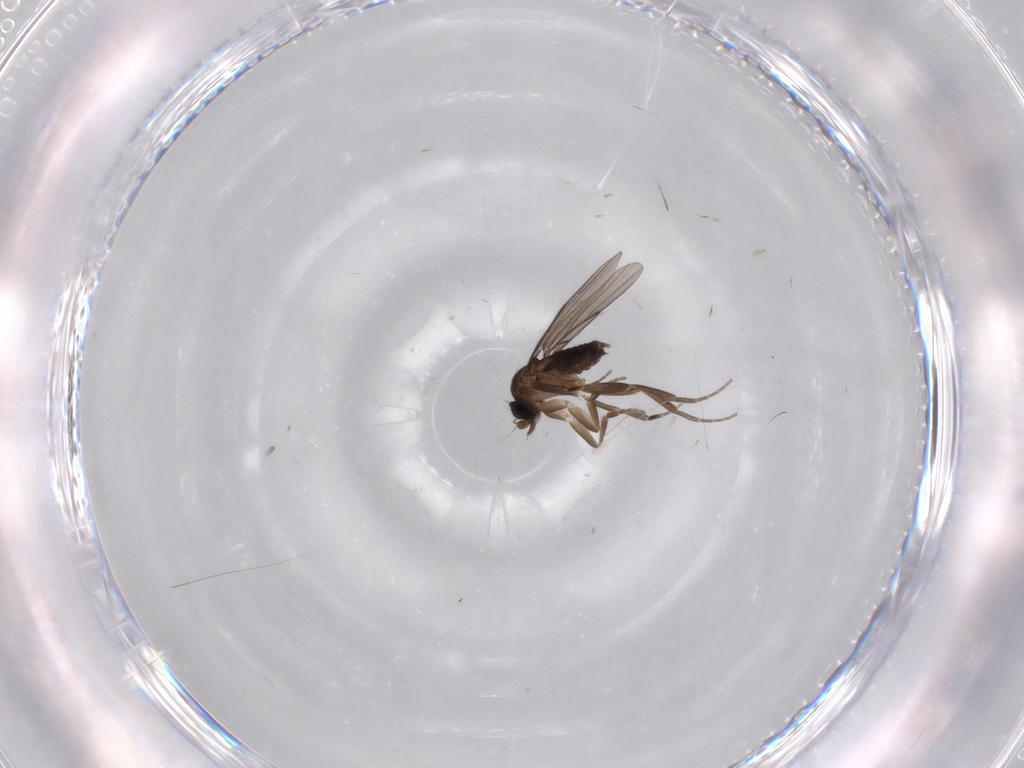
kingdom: Animalia
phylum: Arthropoda
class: Insecta
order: Diptera
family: Phoridae
